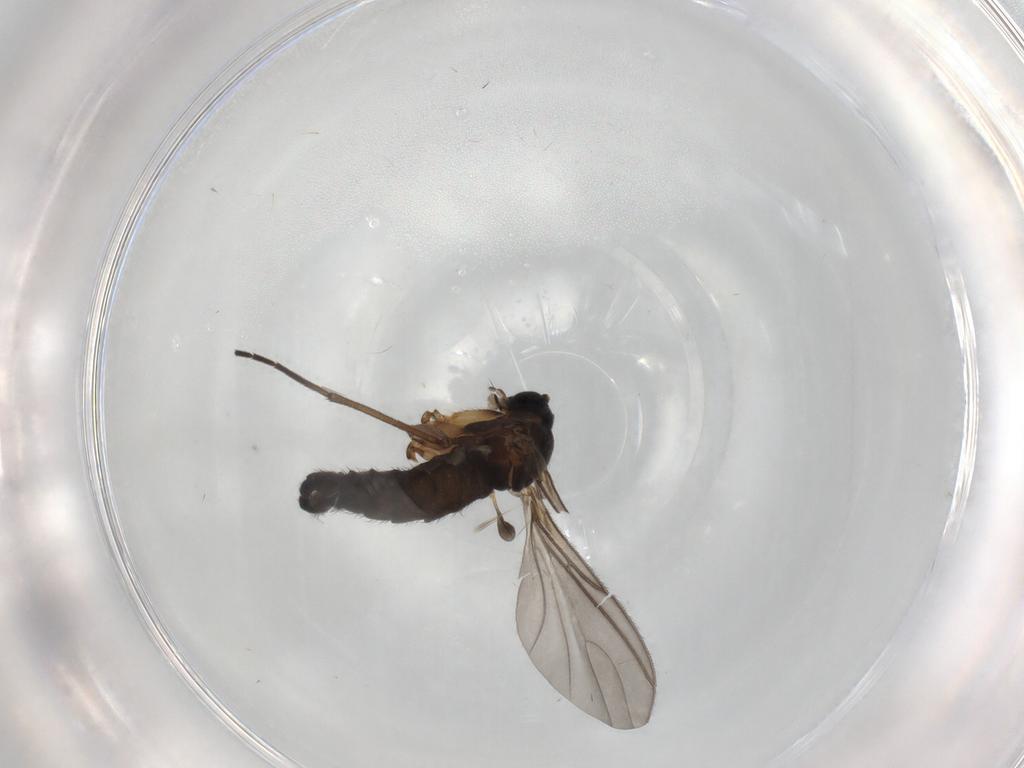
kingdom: Animalia
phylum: Arthropoda
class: Insecta
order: Diptera
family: Sciaridae
